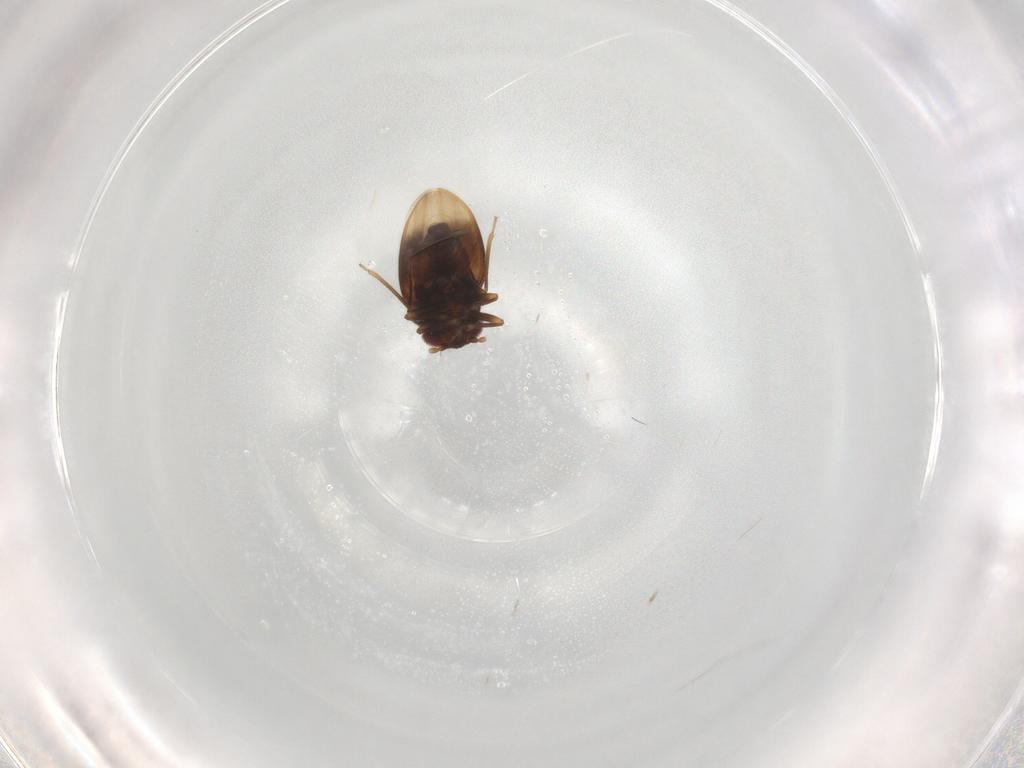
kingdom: Animalia
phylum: Arthropoda
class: Insecta
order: Hemiptera
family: Schizopteridae
